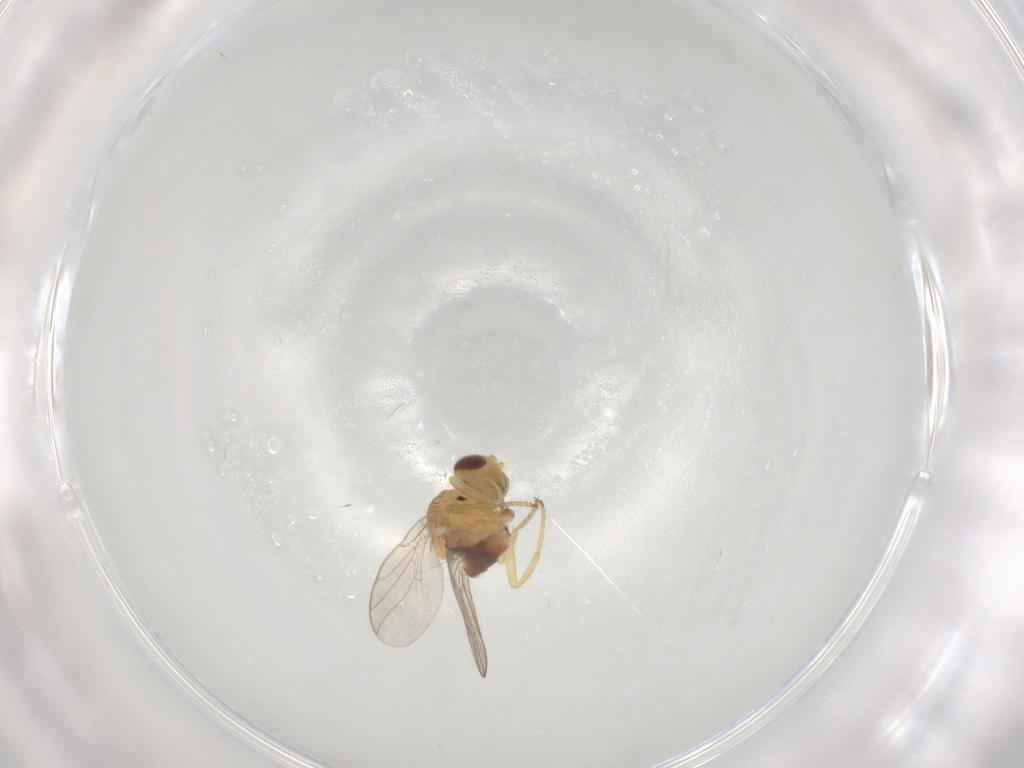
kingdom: Animalia
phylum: Arthropoda
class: Insecta
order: Diptera
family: Chloropidae
